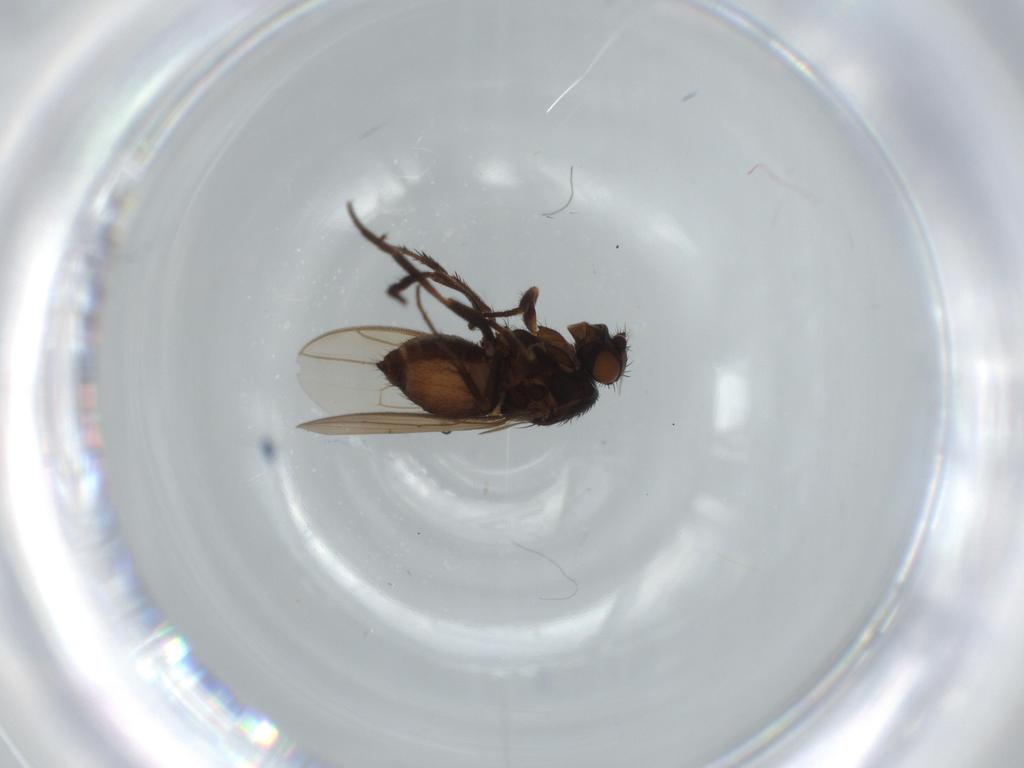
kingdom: Animalia
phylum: Arthropoda
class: Insecta
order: Diptera
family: Sphaeroceridae
